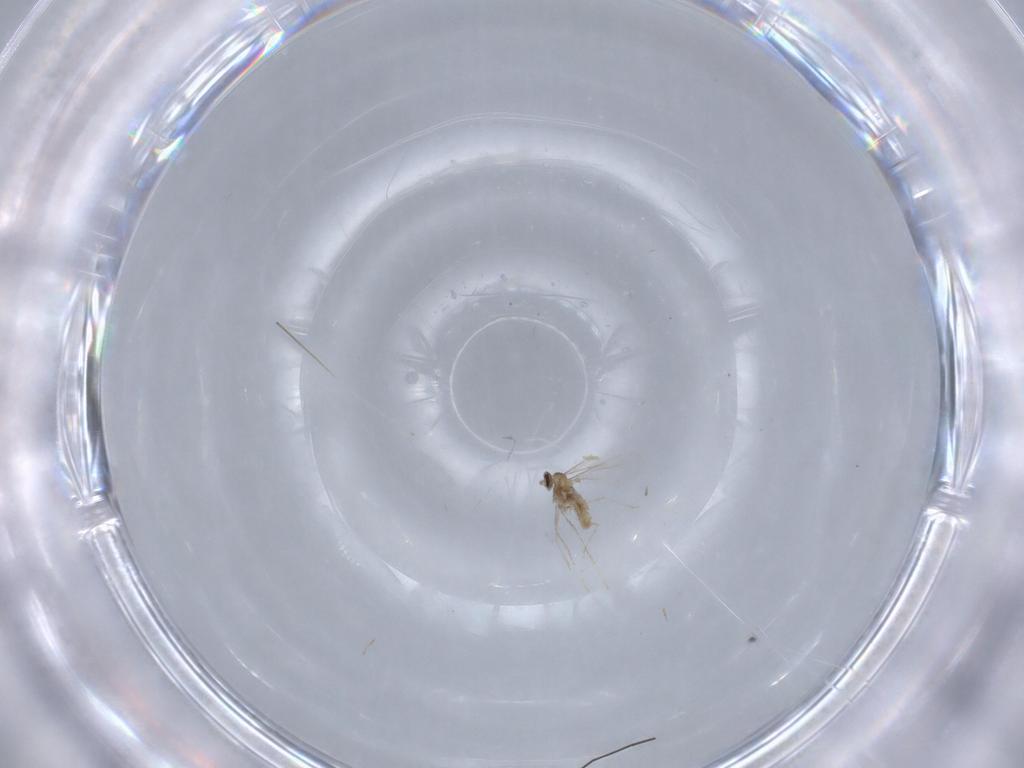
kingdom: Animalia
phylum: Arthropoda
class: Insecta
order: Diptera
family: Cecidomyiidae
